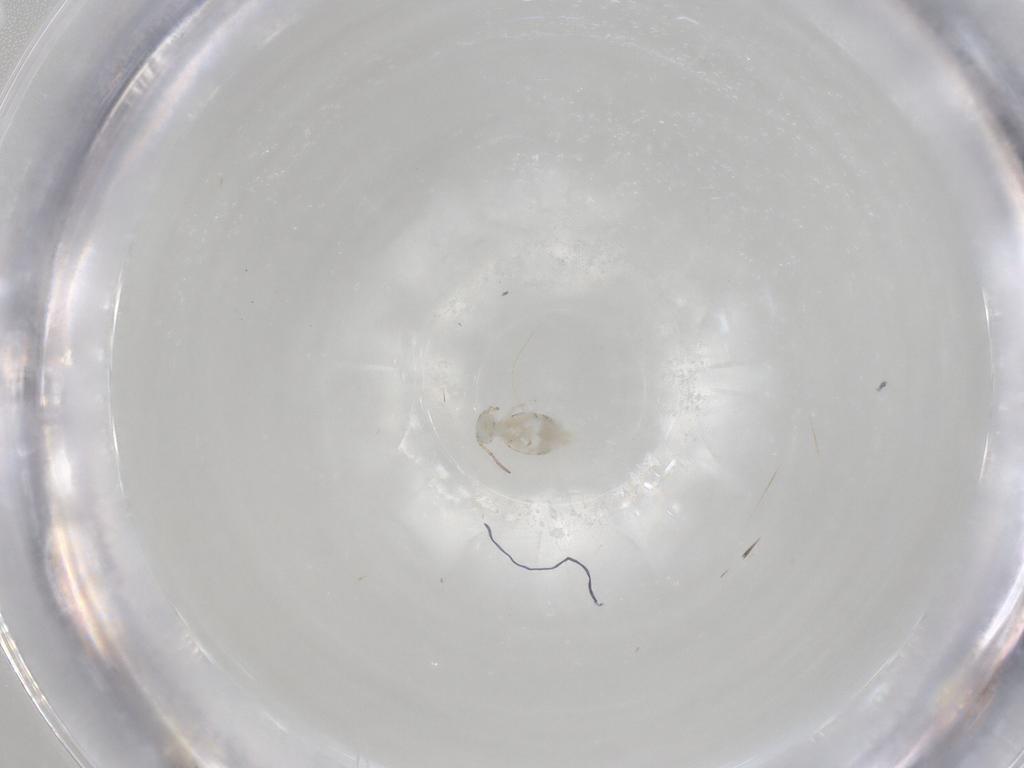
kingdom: Animalia
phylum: Arthropoda
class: Collembola
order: Symphypleona
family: Bourletiellidae
